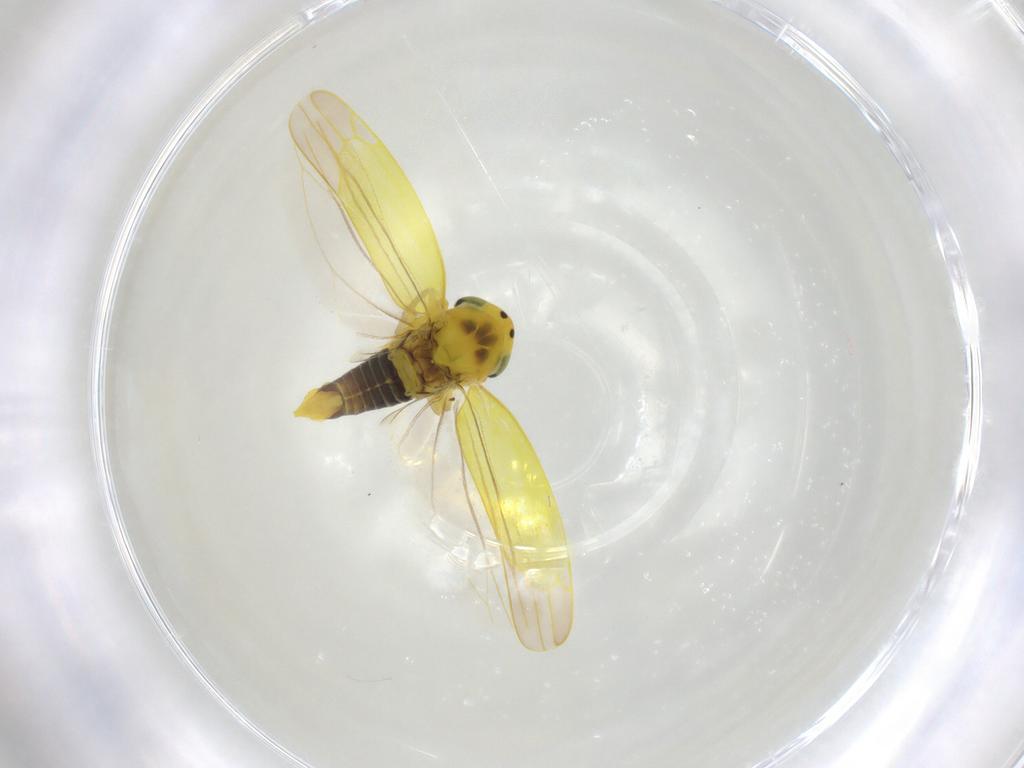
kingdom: Animalia
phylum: Arthropoda
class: Insecta
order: Hemiptera
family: Cicadellidae
